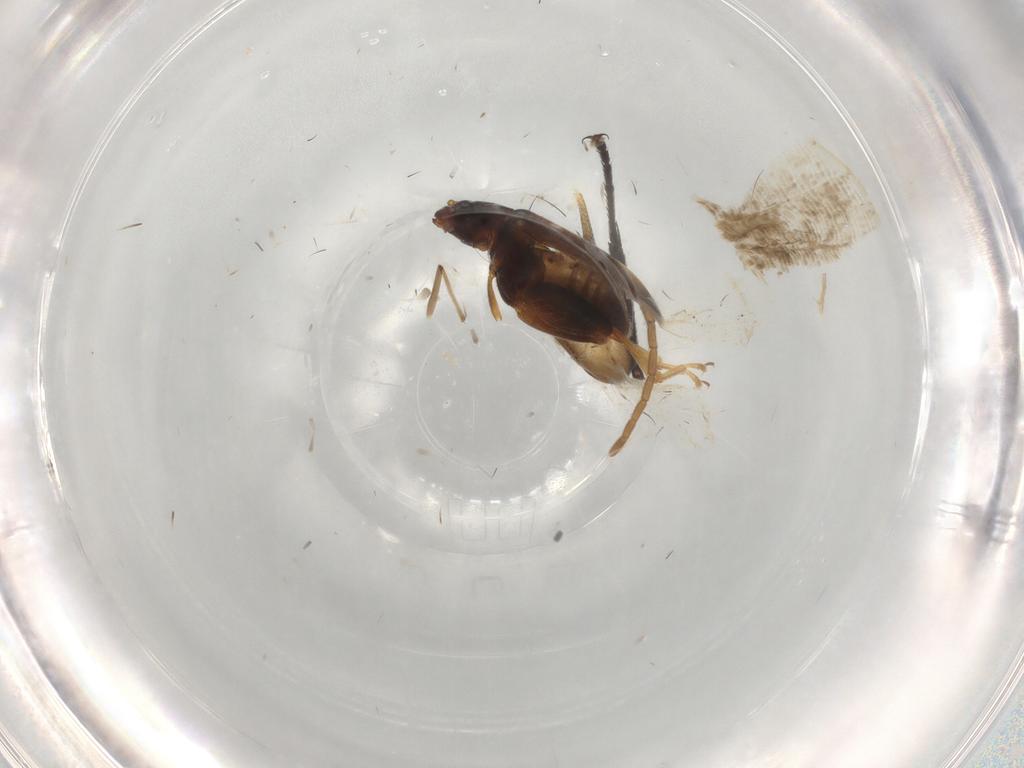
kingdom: Animalia
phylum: Arthropoda
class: Insecta
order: Coleoptera
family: Chrysomelidae
